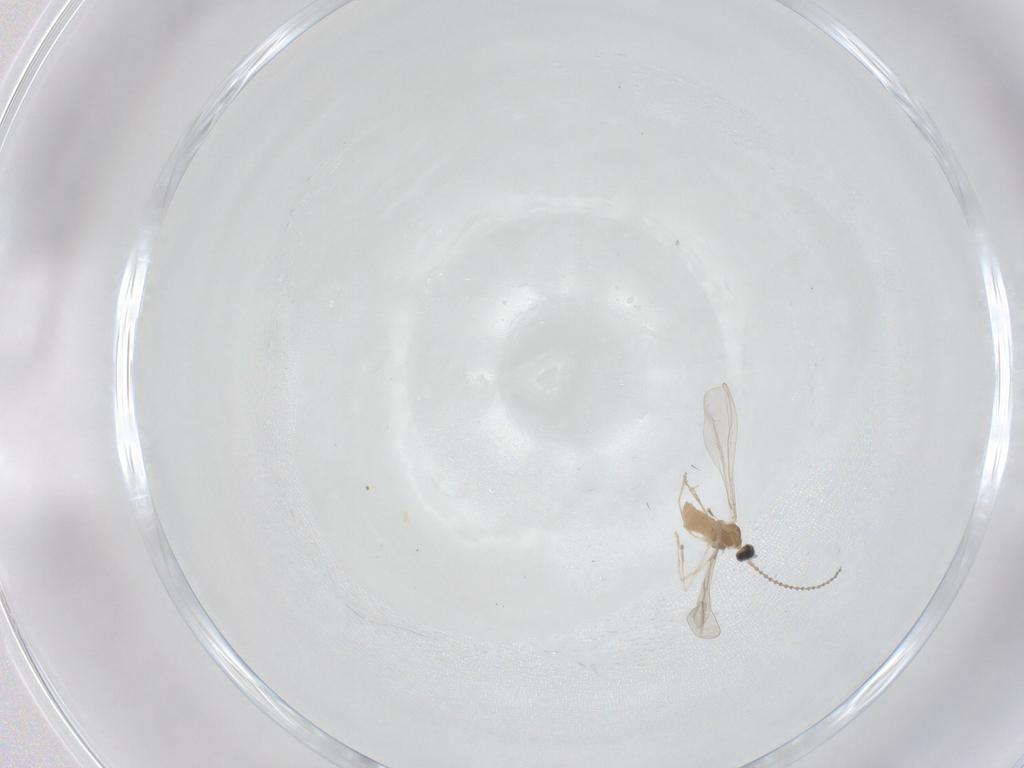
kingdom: Animalia
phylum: Arthropoda
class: Insecta
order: Diptera
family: Cecidomyiidae
